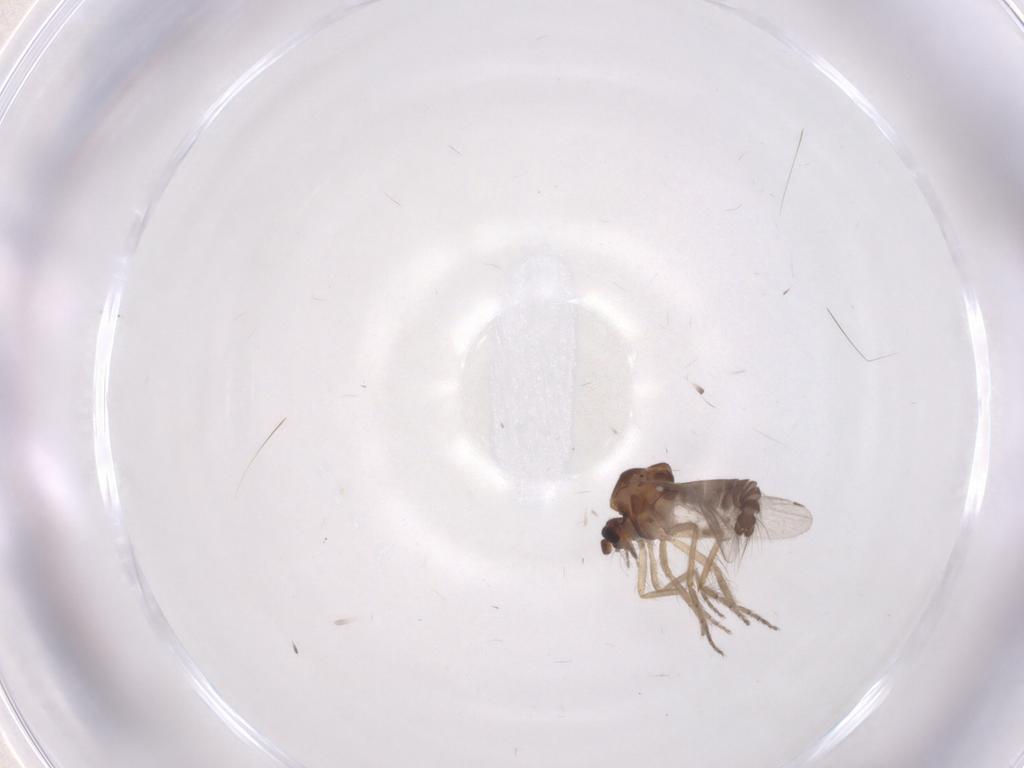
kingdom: Animalia
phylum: Arthropoda
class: Insecta
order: Diptera
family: Ceratopogonidae
